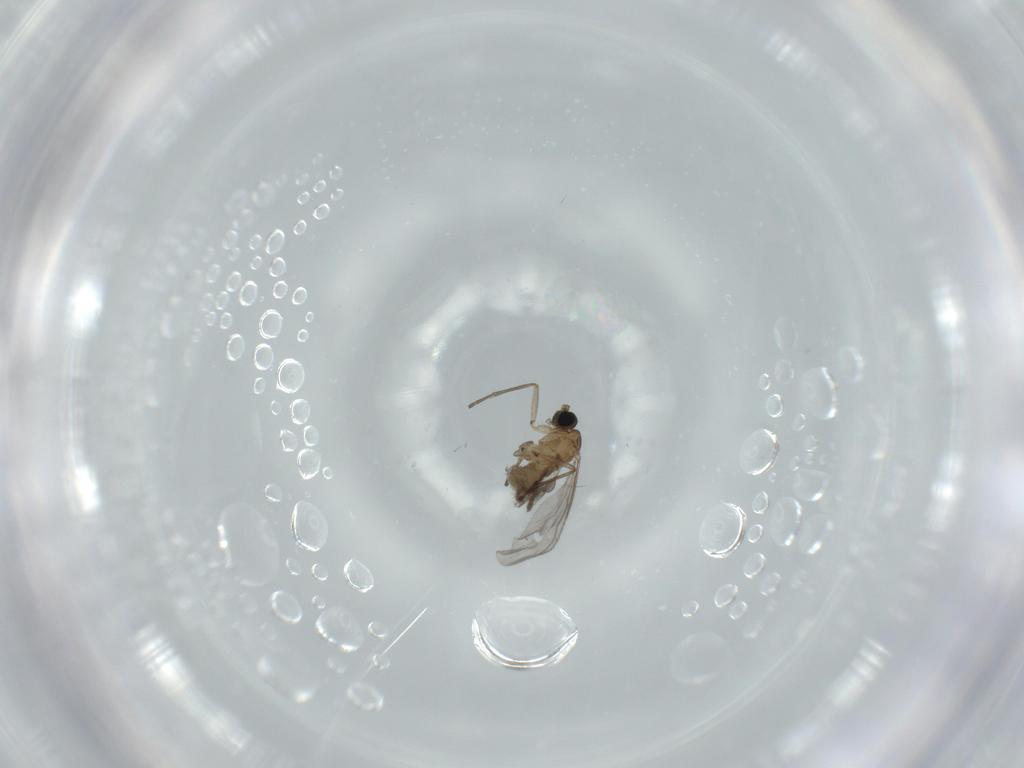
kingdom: Animalia
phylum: Arthropoda
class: Insecta
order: Diptera
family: Sciaridae
